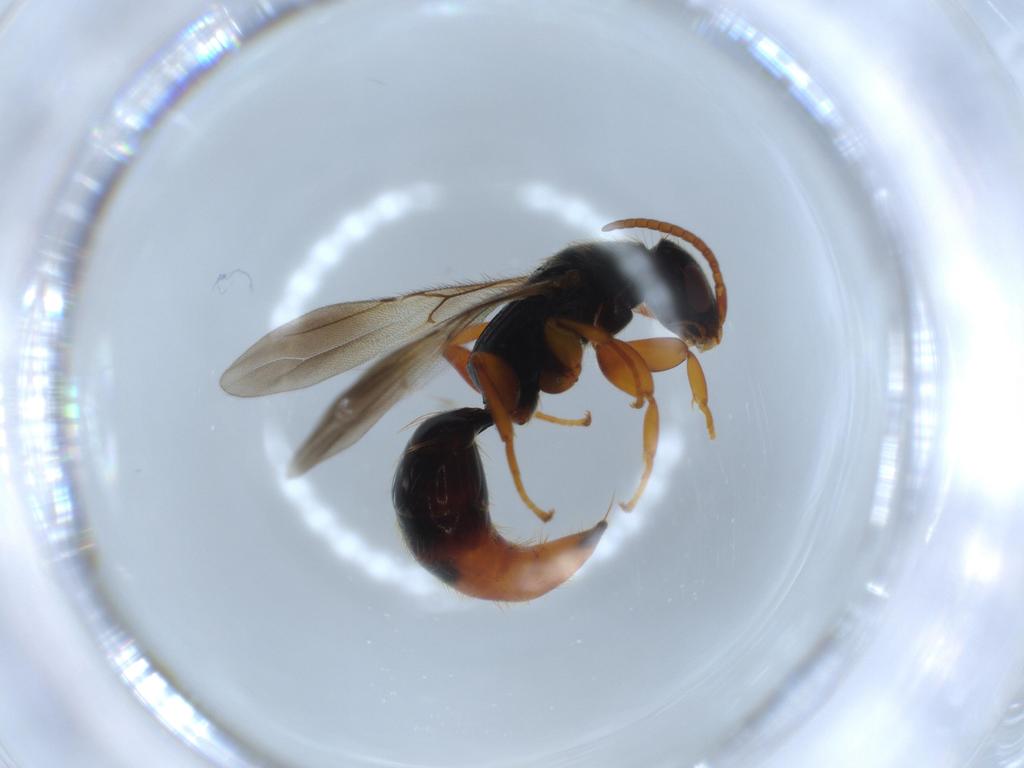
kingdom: Animalia
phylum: Arthropoda
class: Insecta
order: Hymenoptera
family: Bethylidae
